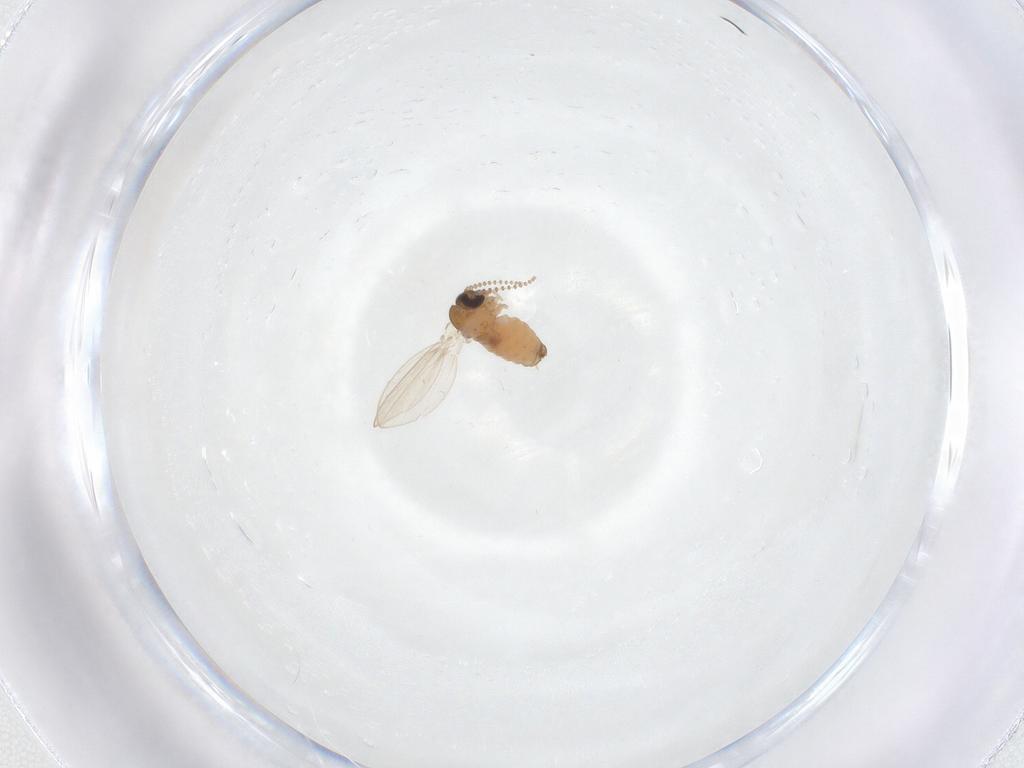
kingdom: Animalia
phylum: Arthropoda
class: Insecta
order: Diptera
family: Psychodidae
